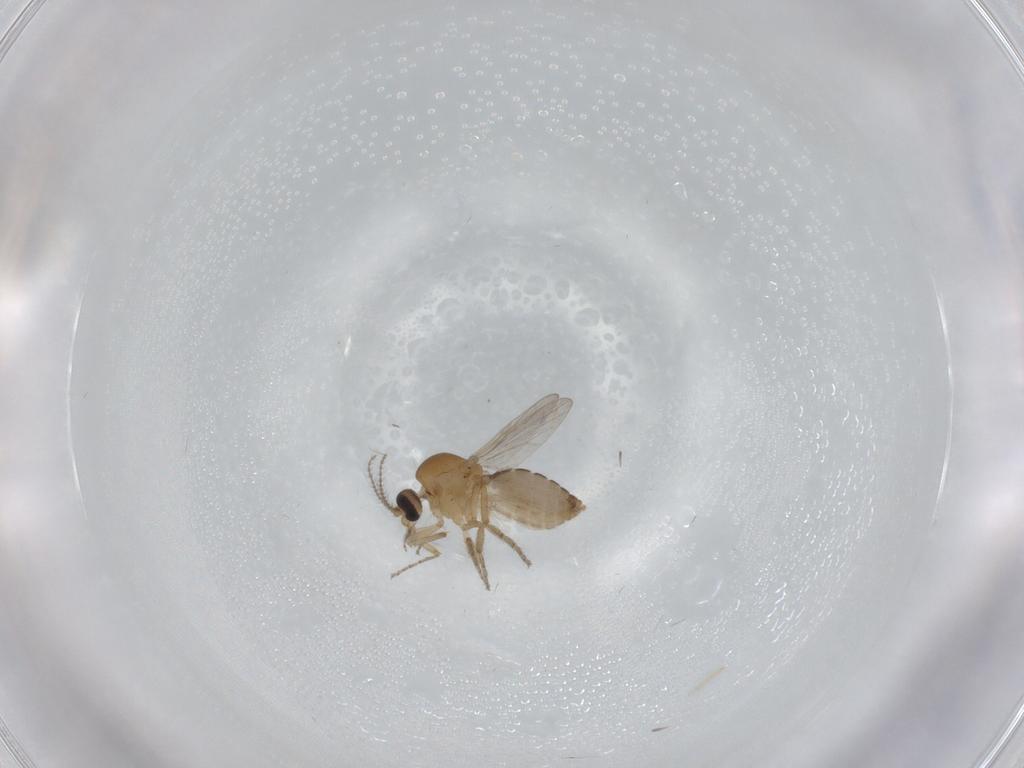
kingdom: Animalia
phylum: Arthropoda
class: Insecta
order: Diptera
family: Ceratopogonidae
